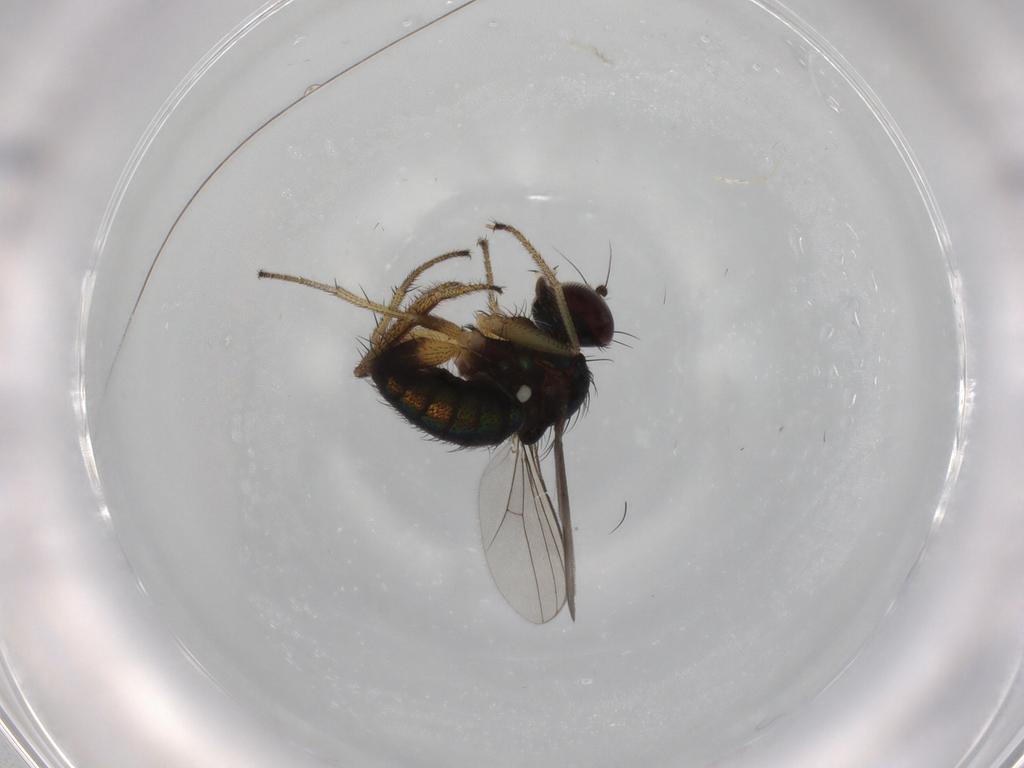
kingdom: Animalia
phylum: Arthropoda
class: Insecta
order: Diptera
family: Dolichopodidae
